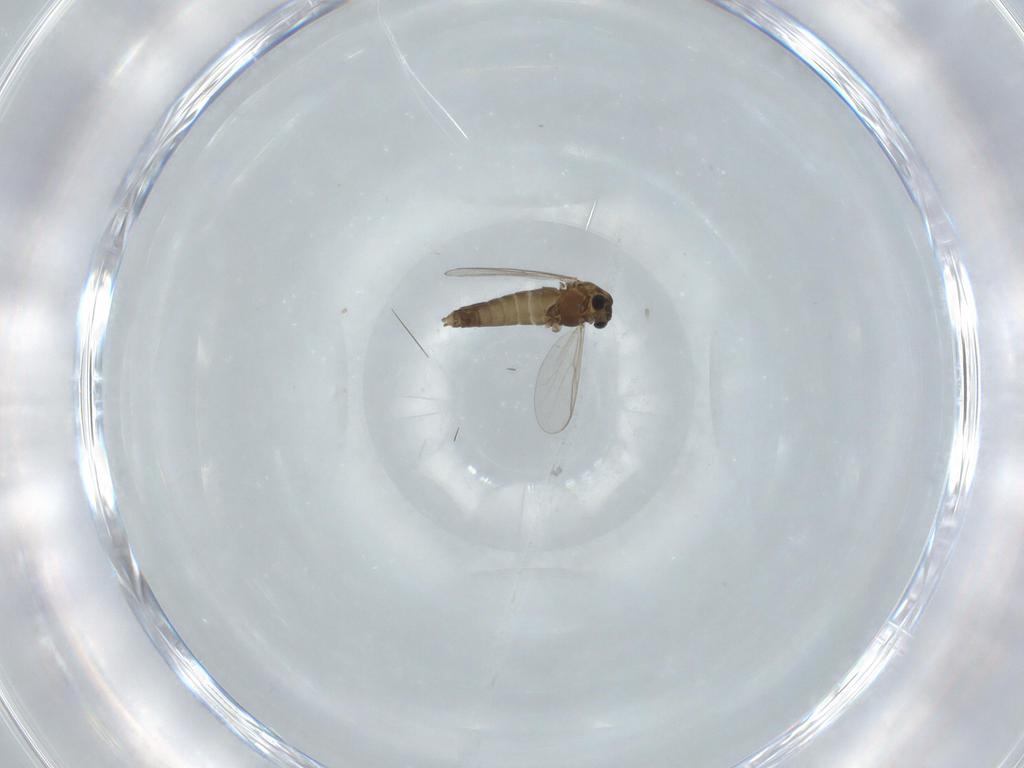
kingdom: Animalia
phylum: Arthropoda
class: Insecta
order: Diptera
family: Chironomidae
